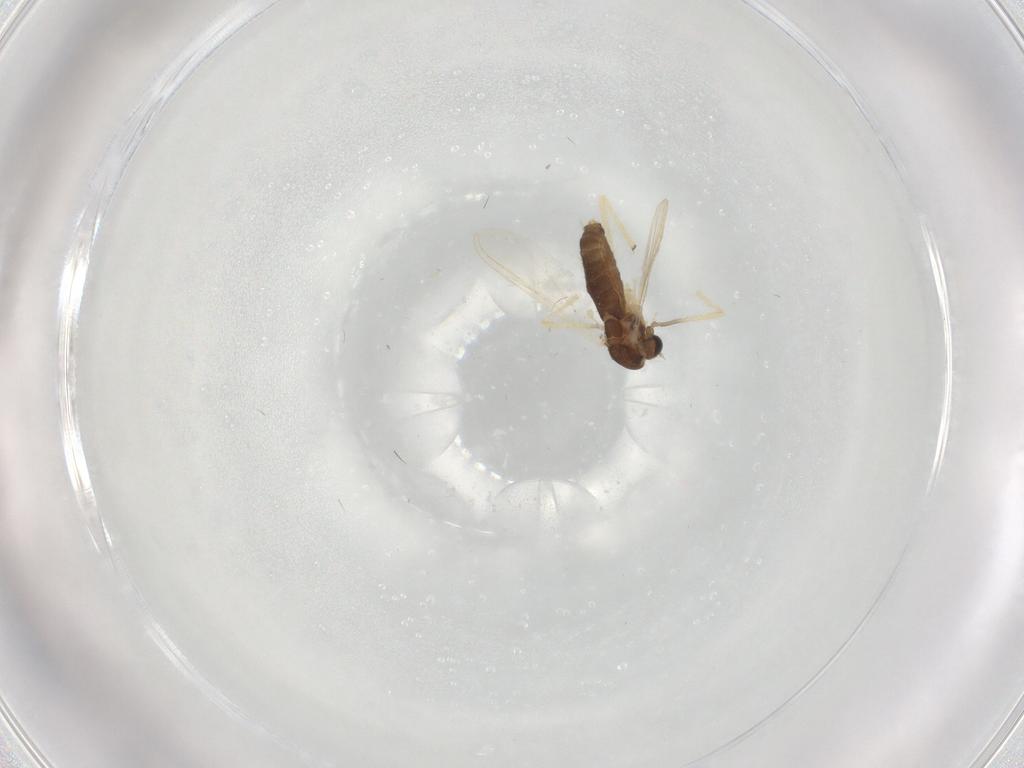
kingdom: Animalia
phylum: Arthropoda
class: Insecta
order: Diptera
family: Chironomidae
